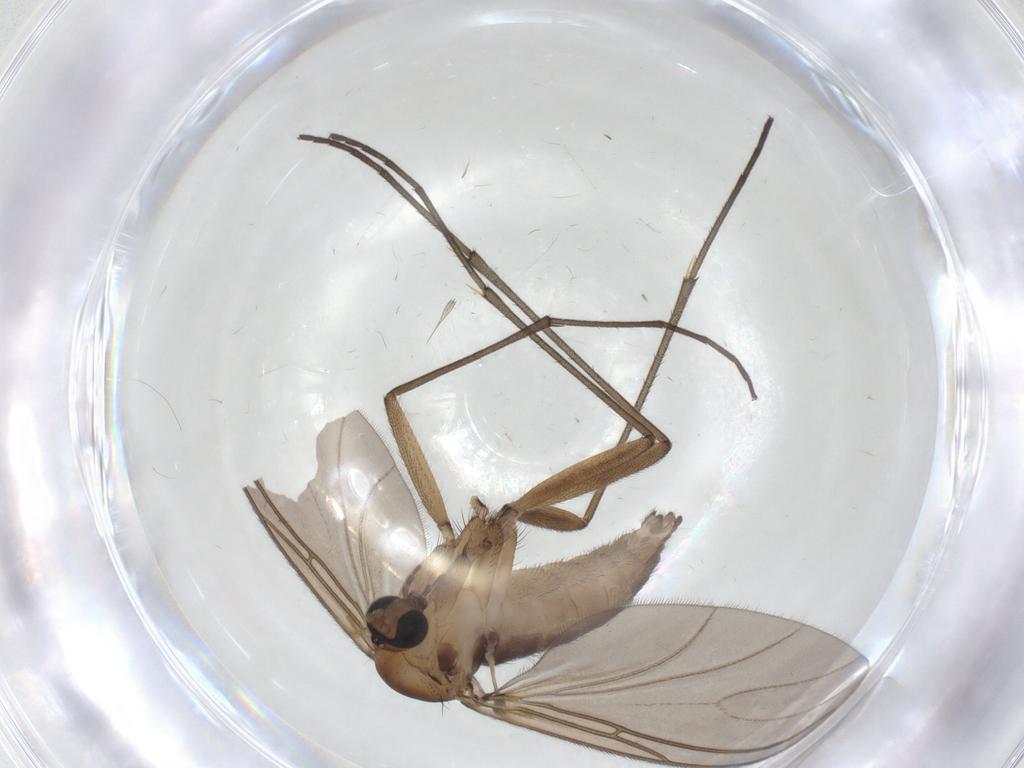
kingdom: Animalia
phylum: Arthropoda
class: Insecta
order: Diptera
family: Sciaridae
